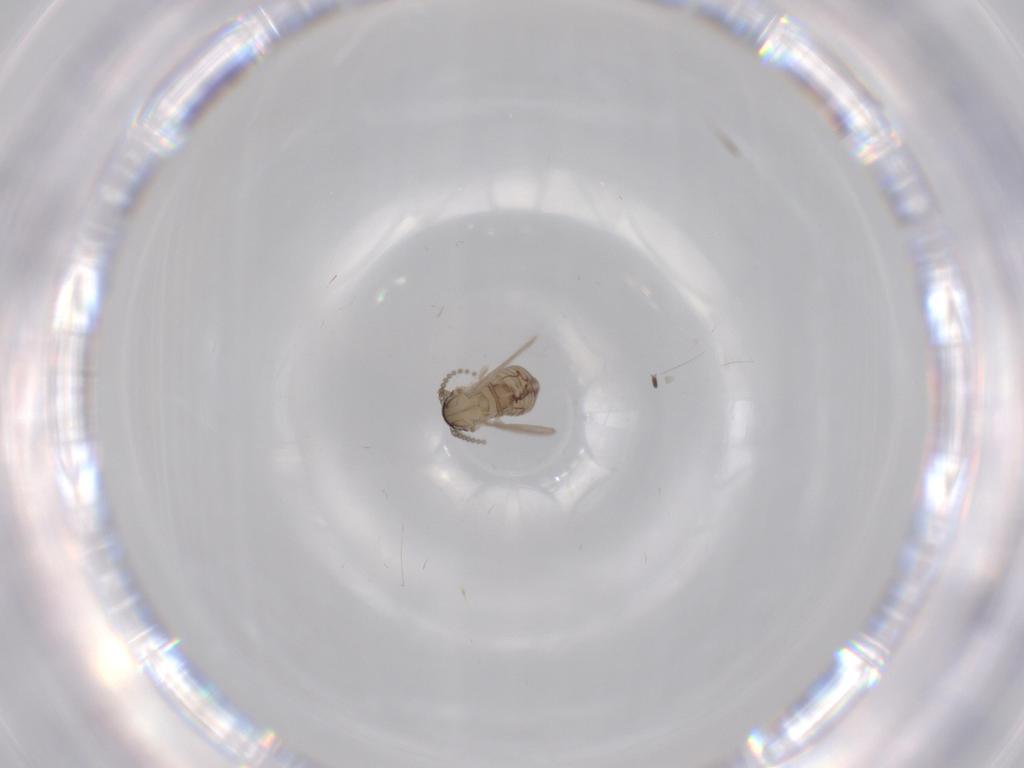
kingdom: Animalia
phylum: Arthropoda
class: Insecta
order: Diptera
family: Psychodidae
